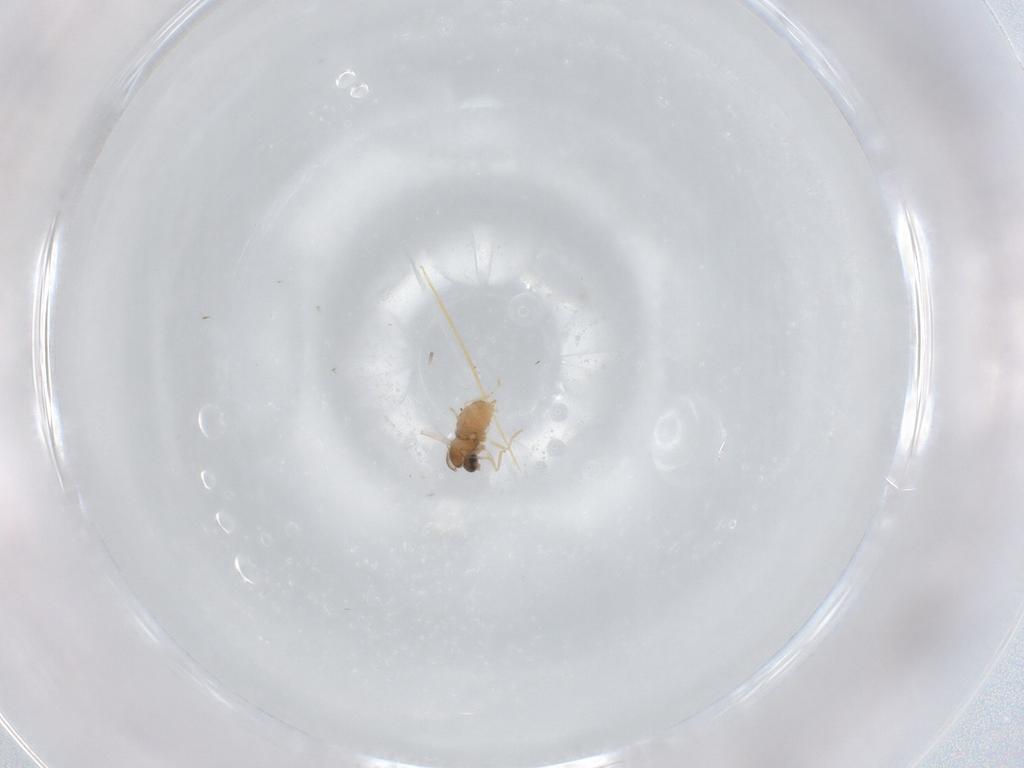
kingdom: Animalia
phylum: Arthropoda
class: Insecta
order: Diptera
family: Cecidomyiidae
